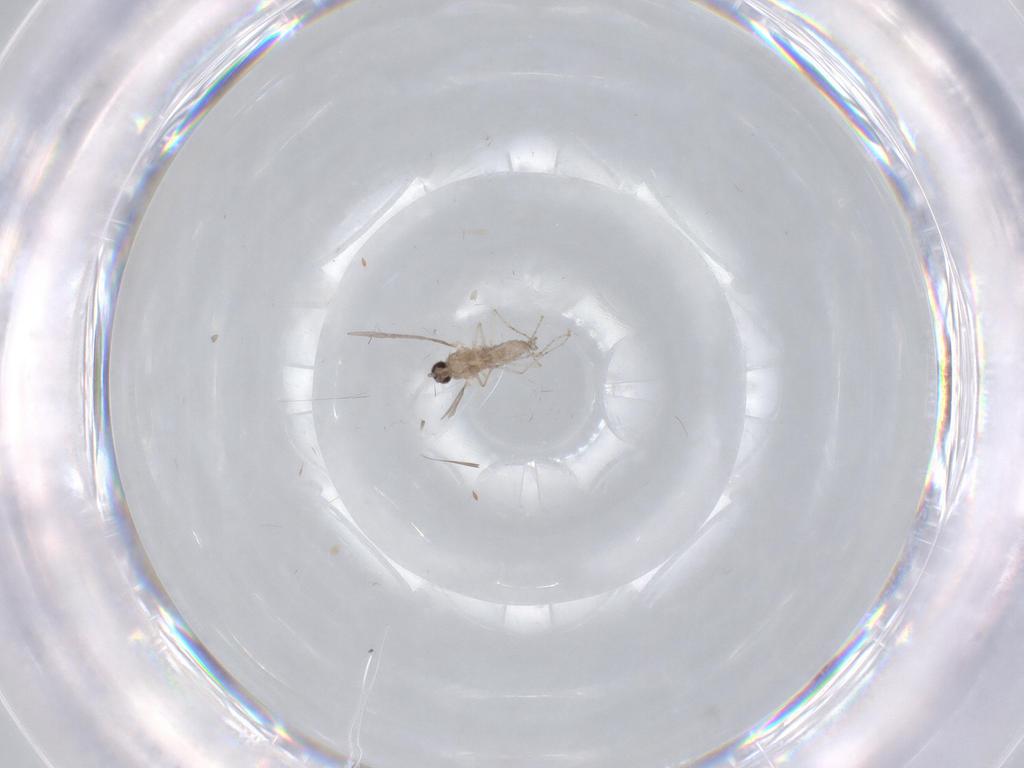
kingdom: Animalia
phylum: Arthropoda
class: Insecta
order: Diptera
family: Cecidomyiidae
